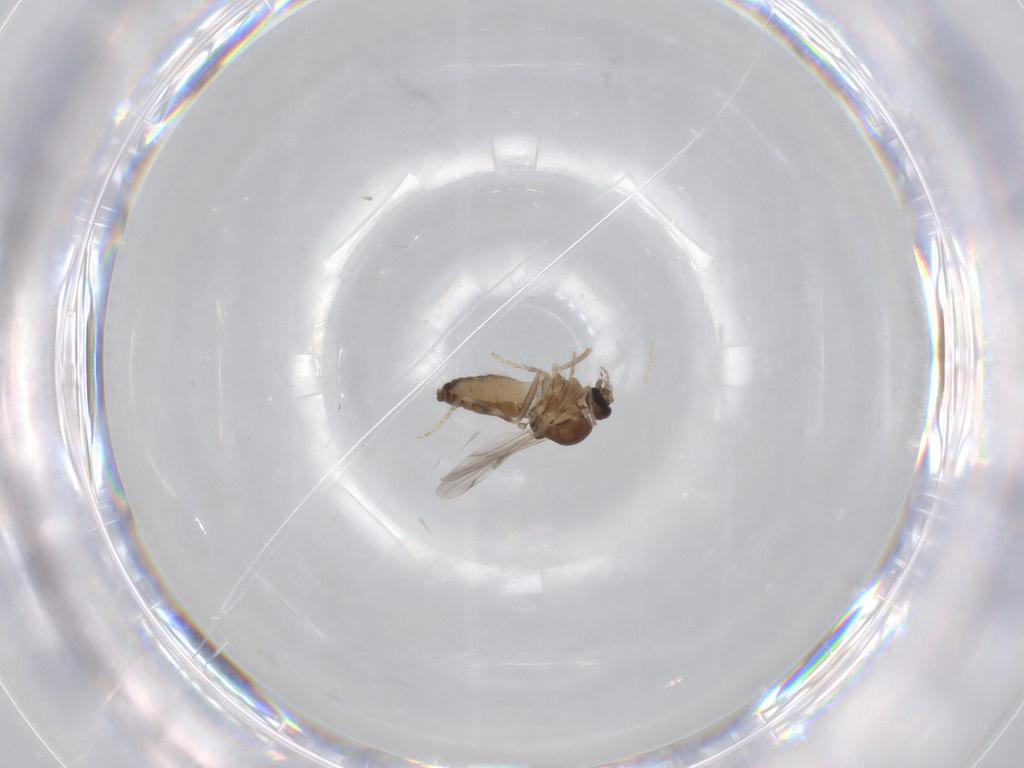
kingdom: Animalia
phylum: Arthropoda
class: Insecta
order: Diptera
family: Ceratopogonidae
